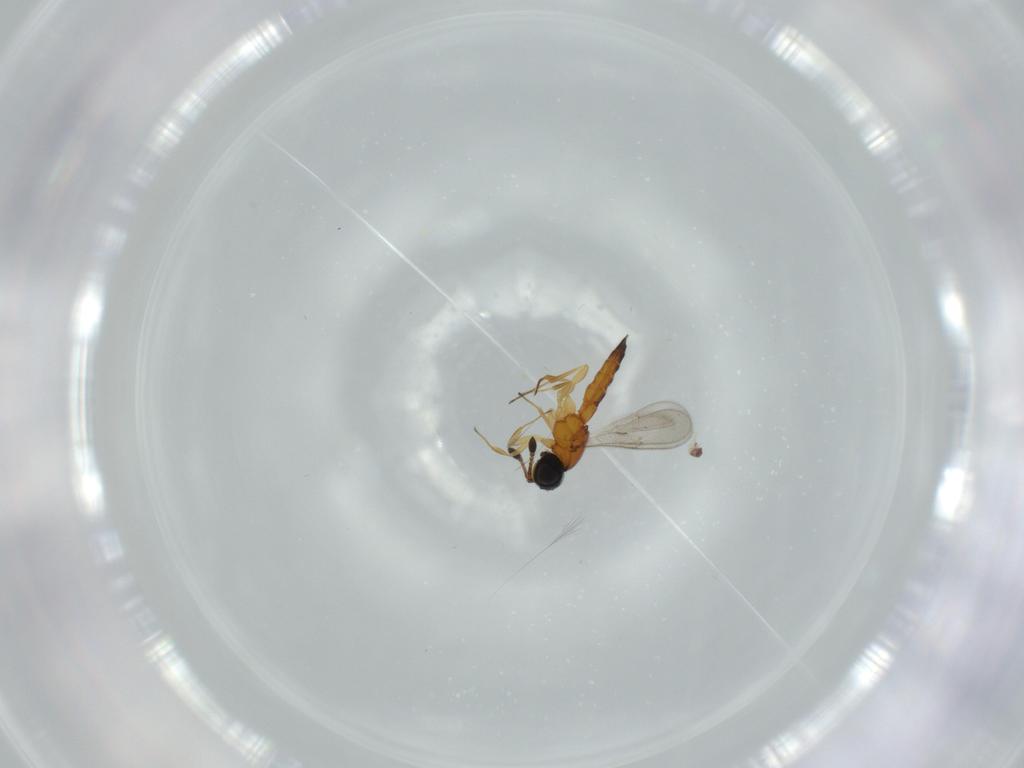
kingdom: Animalia
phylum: Arthropoda
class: Insecta
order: Hymenoptera
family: Scelionidae
